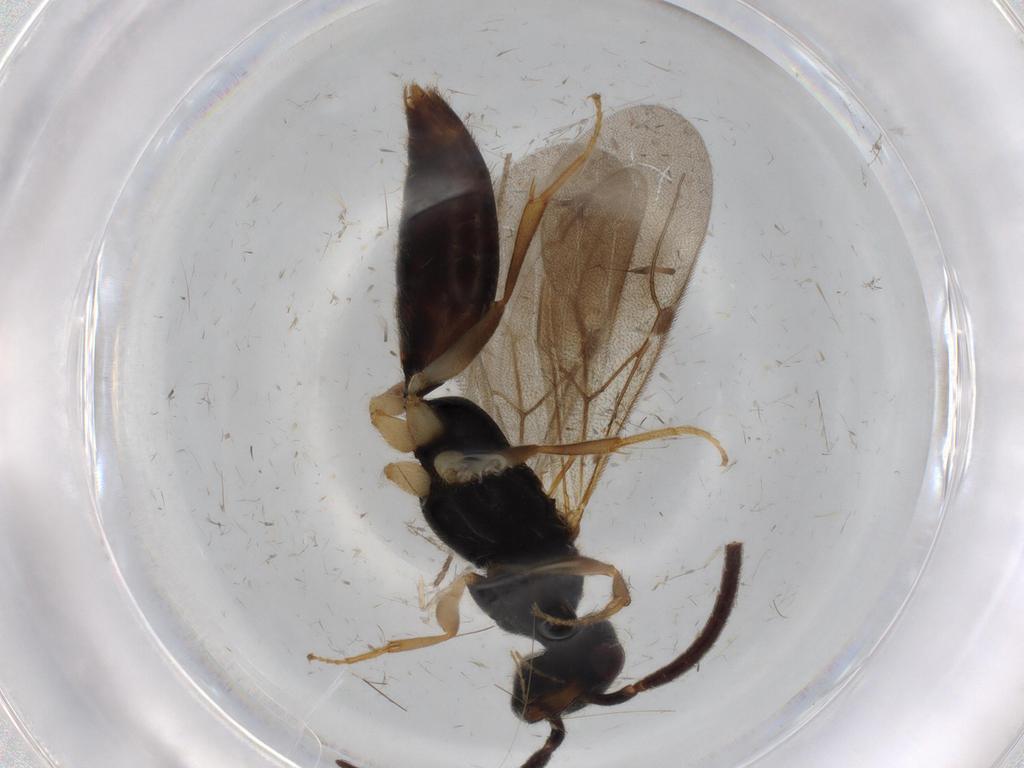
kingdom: Animalia
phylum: Arthropoda
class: Insecta
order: Hymenoptera
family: Bethylidae
